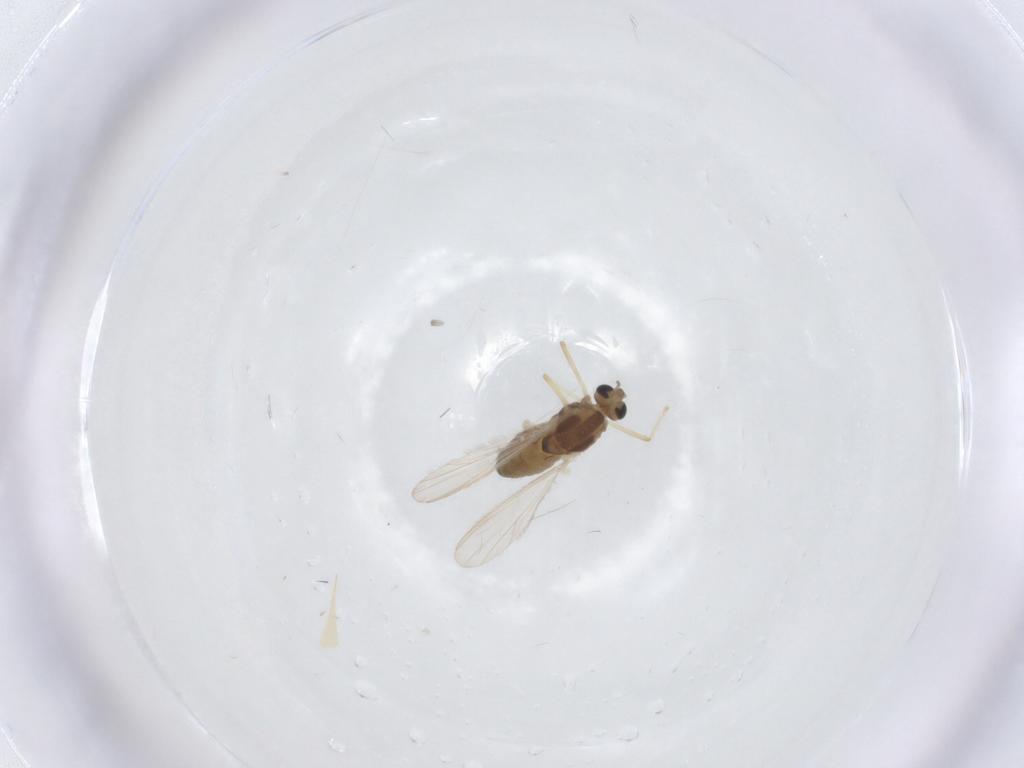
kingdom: Animalia
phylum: Arthropoda
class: Insecta
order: Diptera
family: Chironomidae
